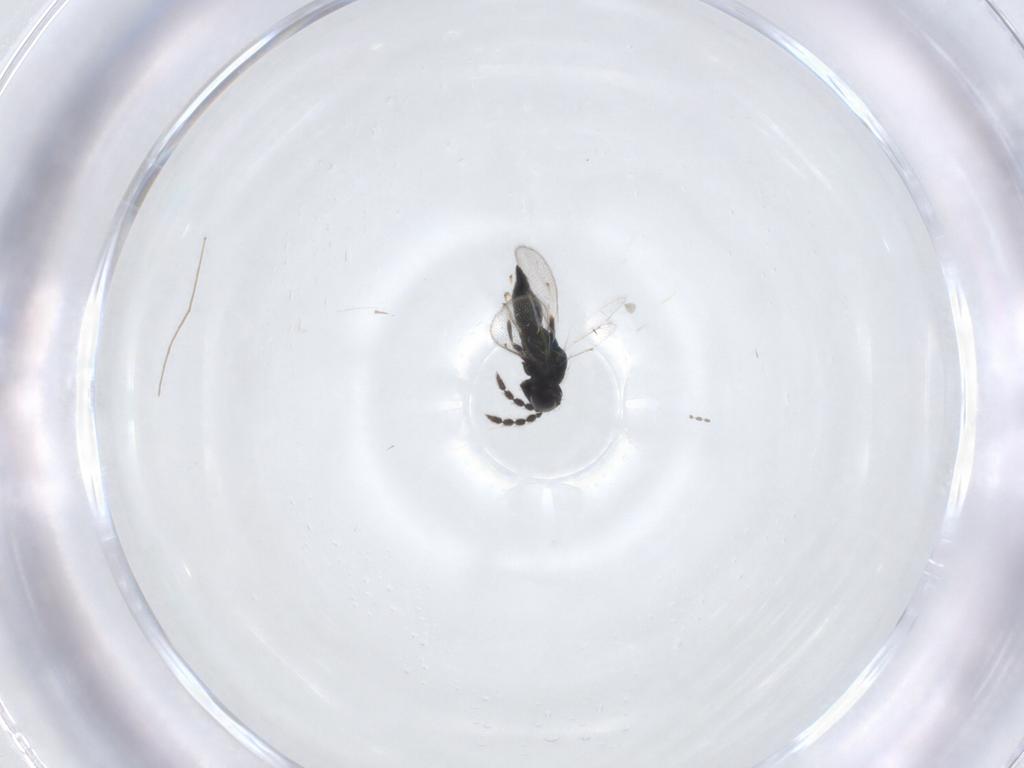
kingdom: Animalia
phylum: Arthropoda
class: Insecta
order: Hymenoptera
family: Eulophidae
